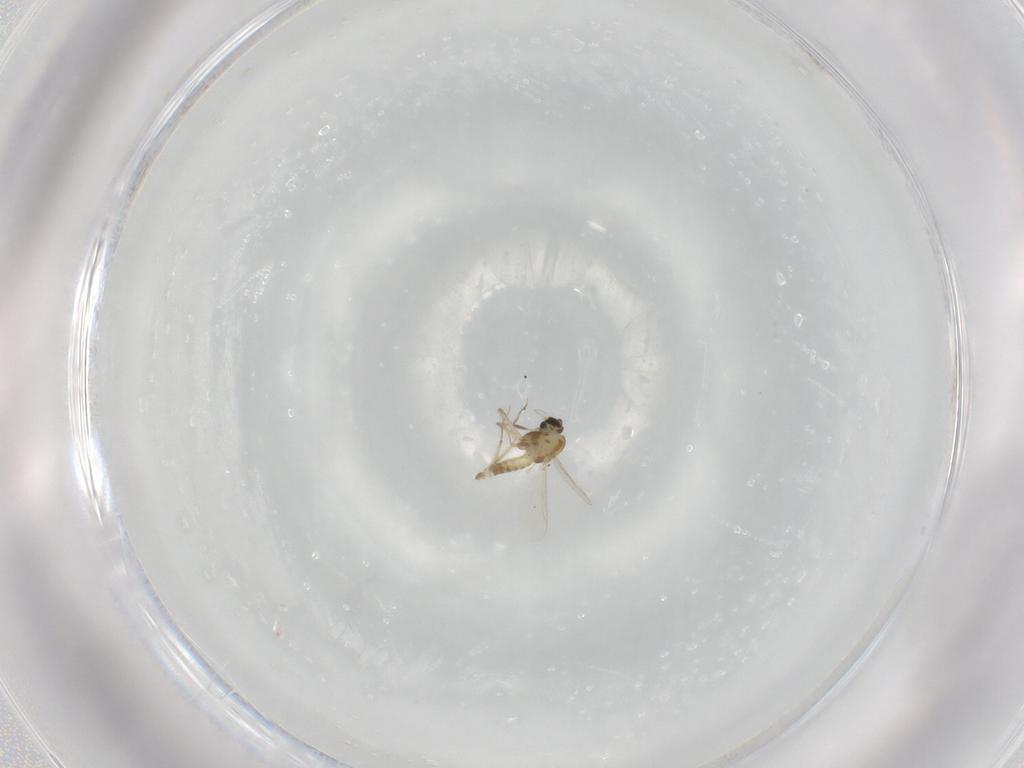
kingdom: Animalia
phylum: Arthropoda
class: Insecta
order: Diptera
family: Chironomidae
